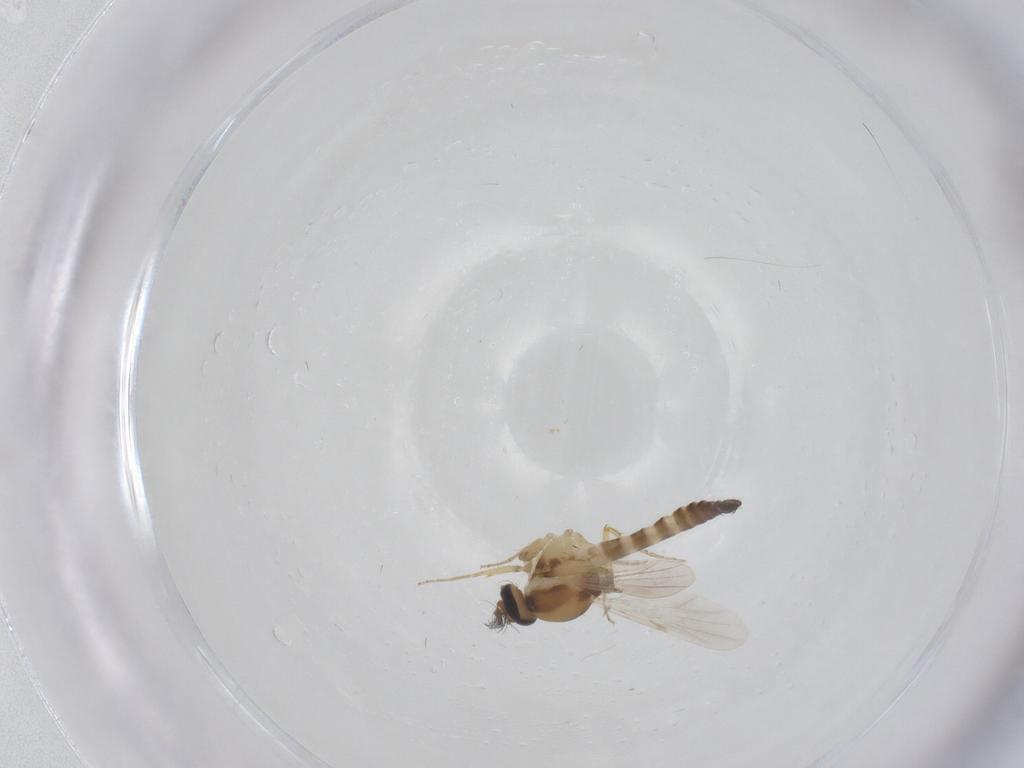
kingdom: Animalia
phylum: Arthropoda
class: Insecta
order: Diptera
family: Ceratopogonidae
